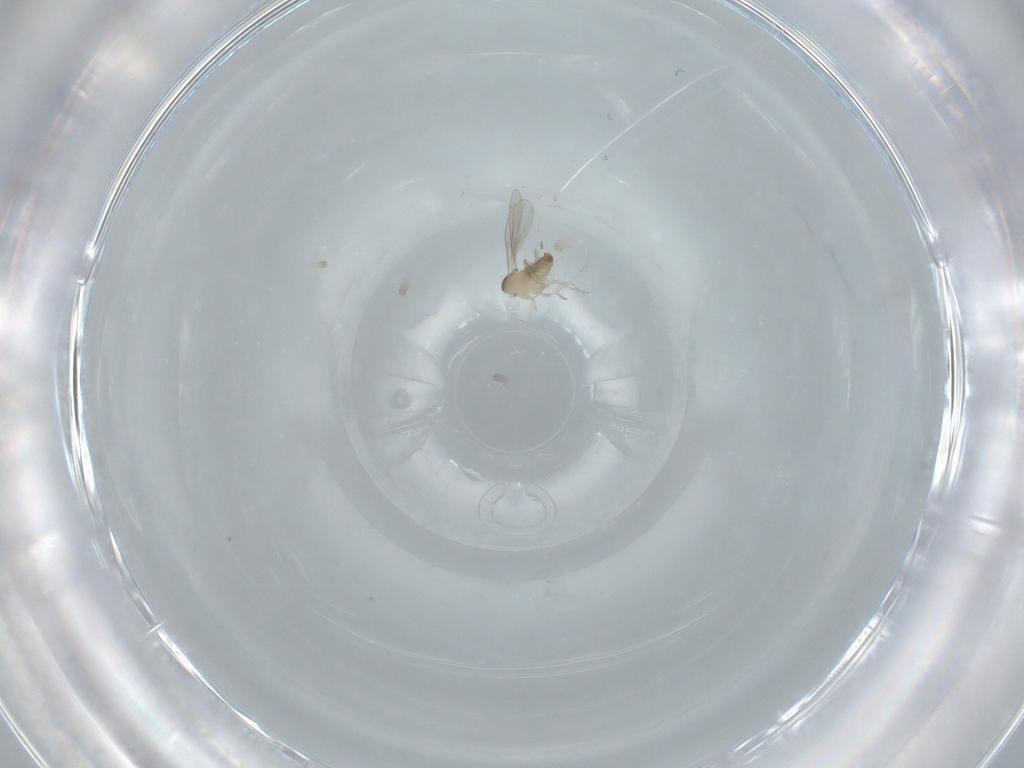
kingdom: Animalia
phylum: Arthropoda
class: Insecta
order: Diptera
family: Cecidomyiidae
